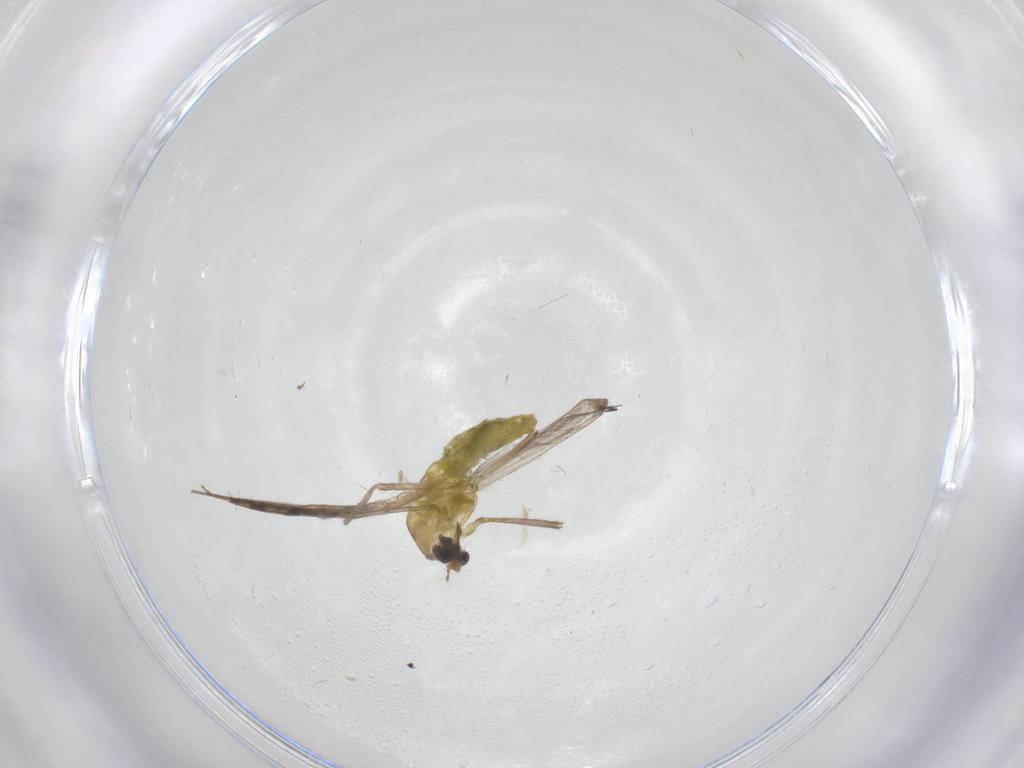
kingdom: Animalia
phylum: Arthropoda
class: Insecta
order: Diptera
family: Chironomidae
